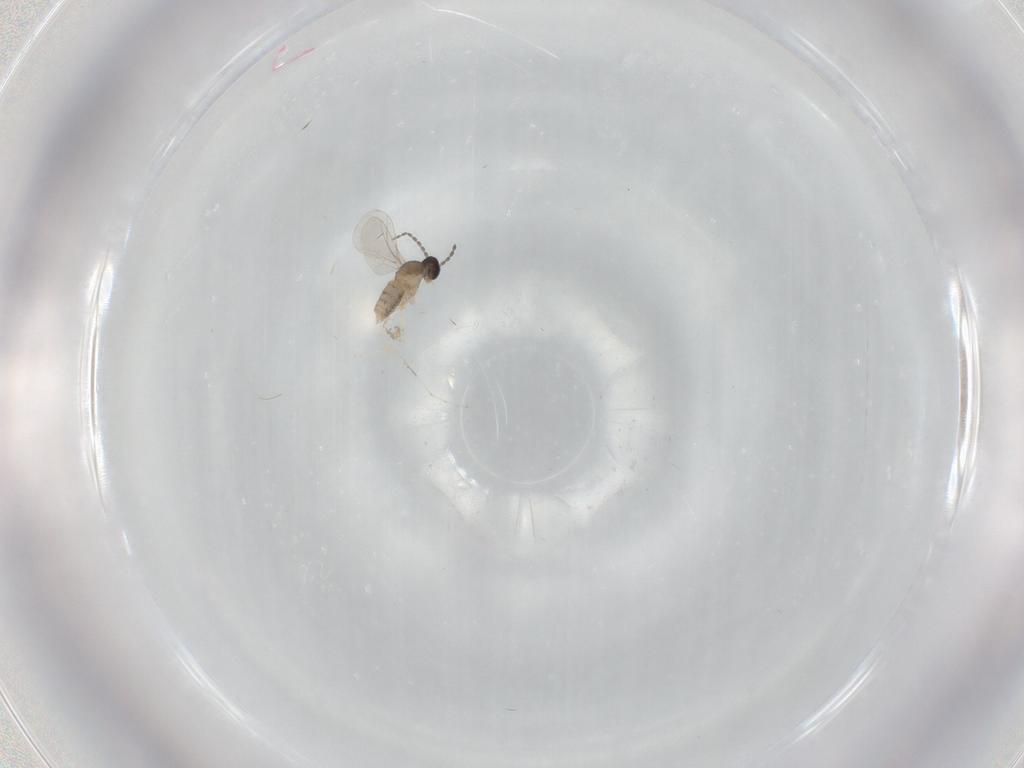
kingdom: Animalia
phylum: Arthropoda
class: Insecta
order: Diptera
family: Cecidomyiidae
